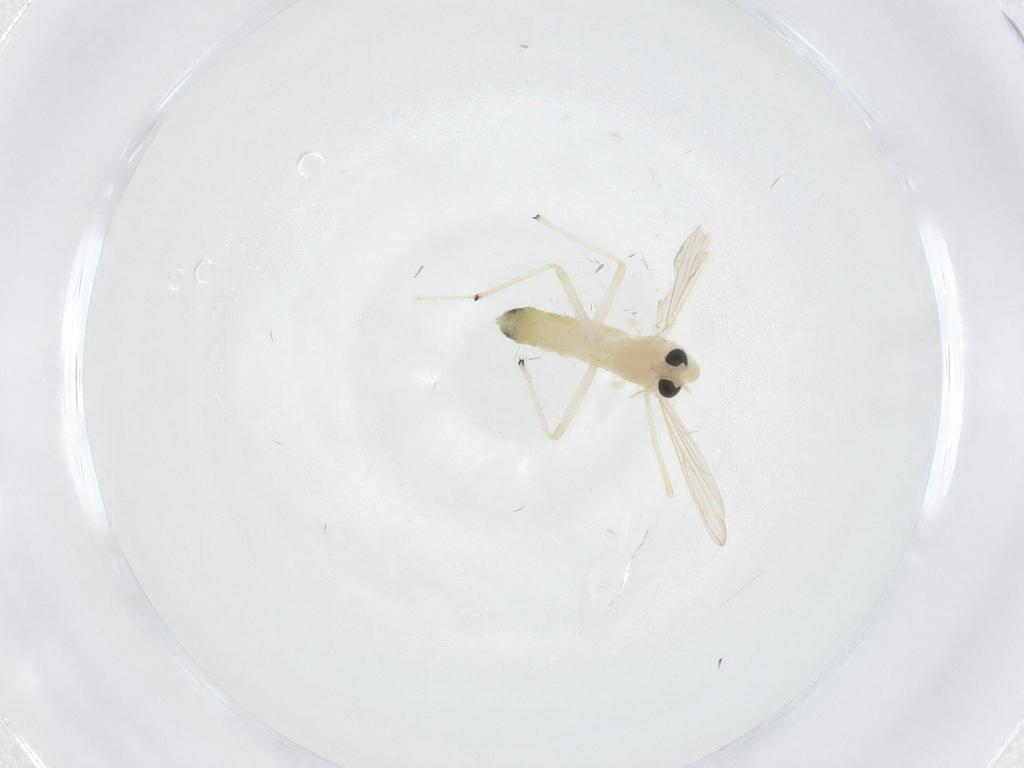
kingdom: Animalia
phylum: Arthropoda
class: Insecta
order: Diptera
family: Chironomidae
